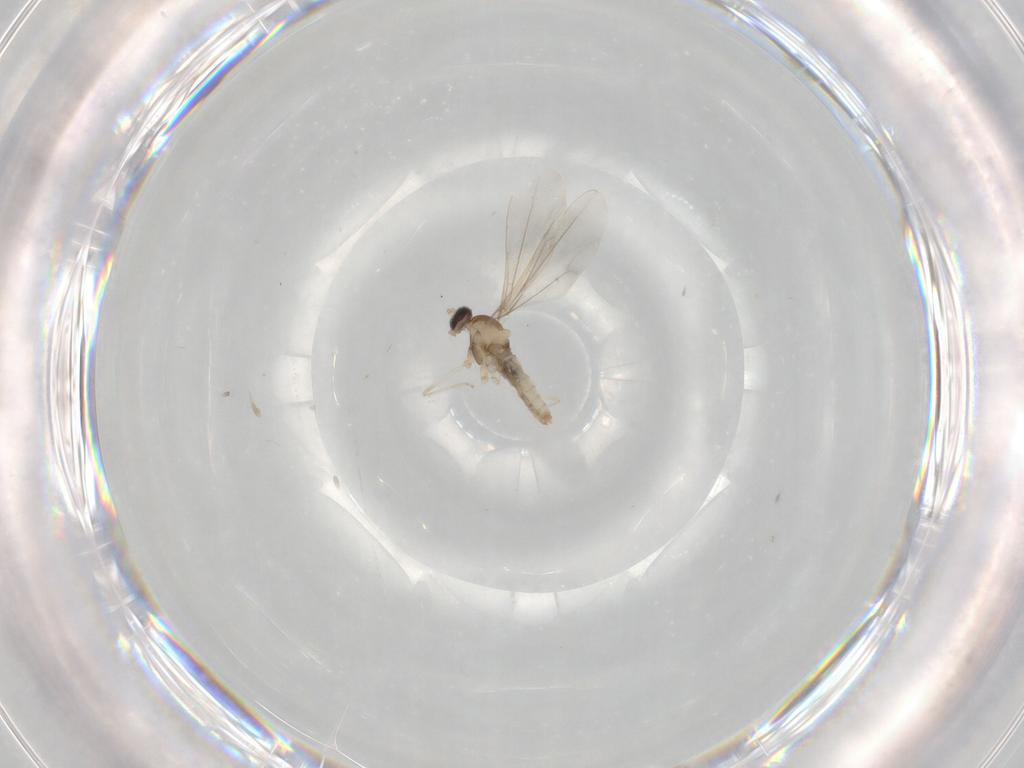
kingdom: Animalia
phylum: Arthropoda
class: Insecta
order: Diptera
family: Cecidomyiidae
